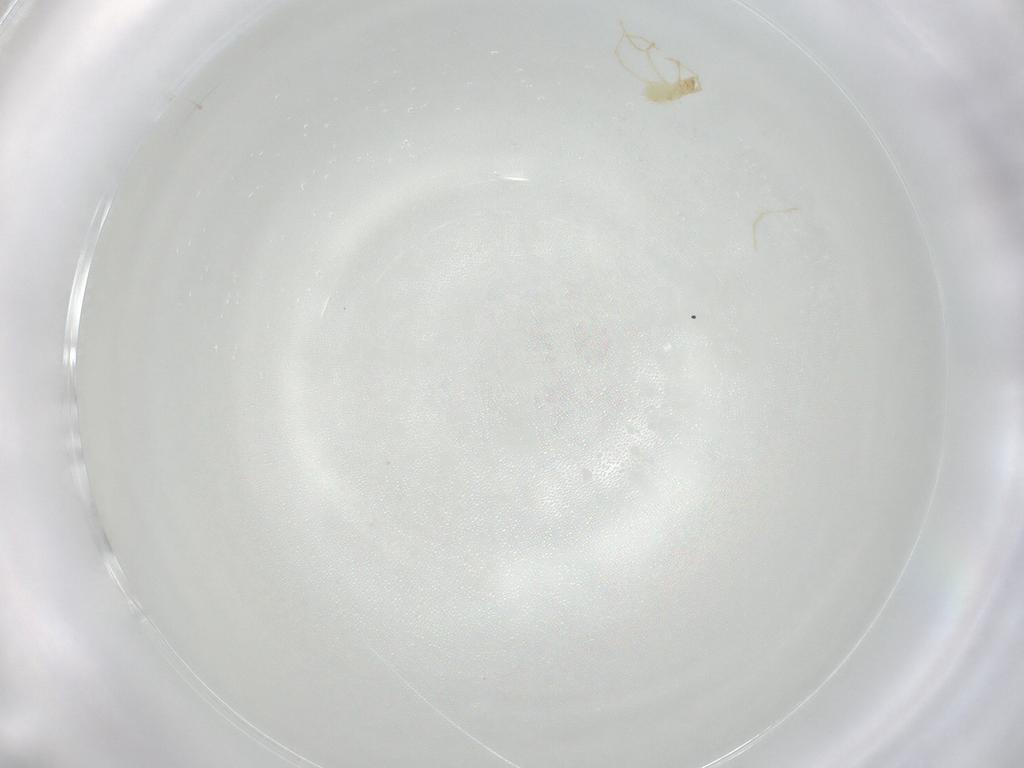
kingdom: Animalia
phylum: Arthropoda
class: Arachnida
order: Trombidiformes
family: Erythraeidae
